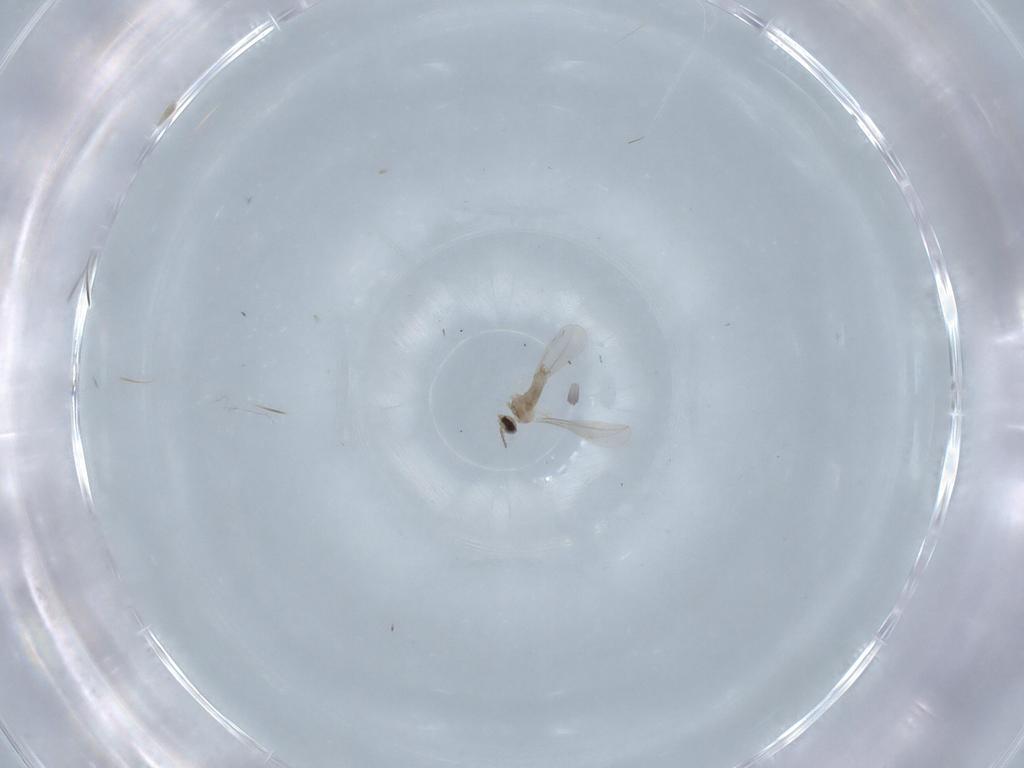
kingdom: Animalia
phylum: Arthropoda
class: Insecta
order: Diptera
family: Cecidomyiidae
